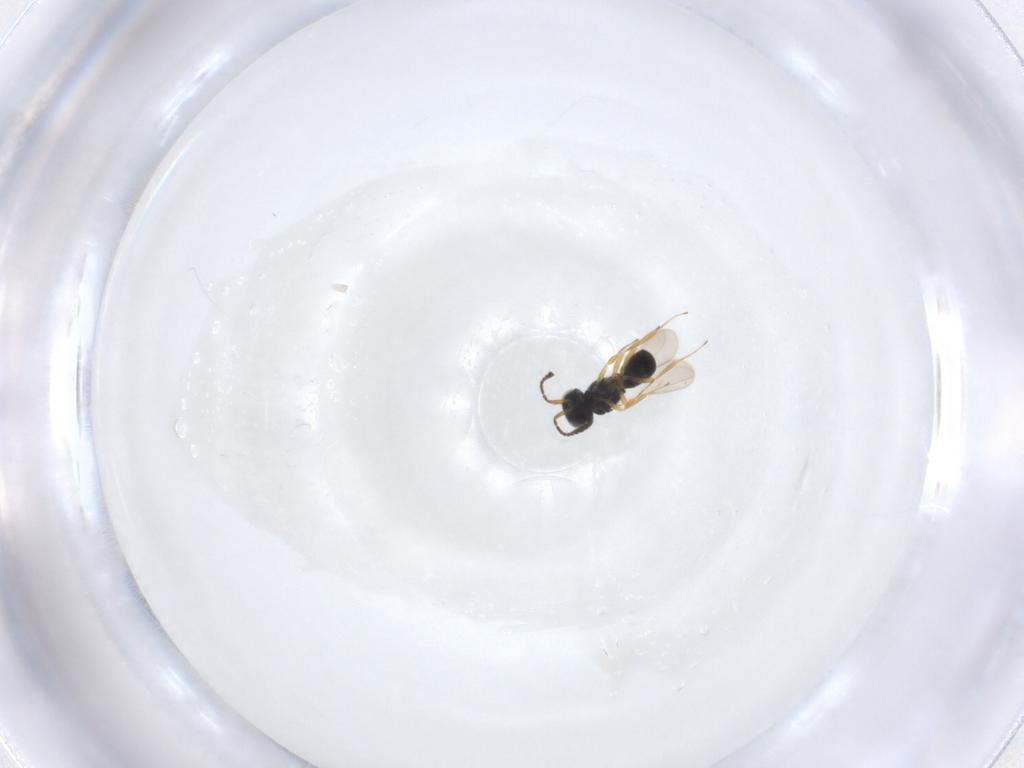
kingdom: Animalia
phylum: Arthropoda
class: Insecta
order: Hymenoptera
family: Scelionidae
